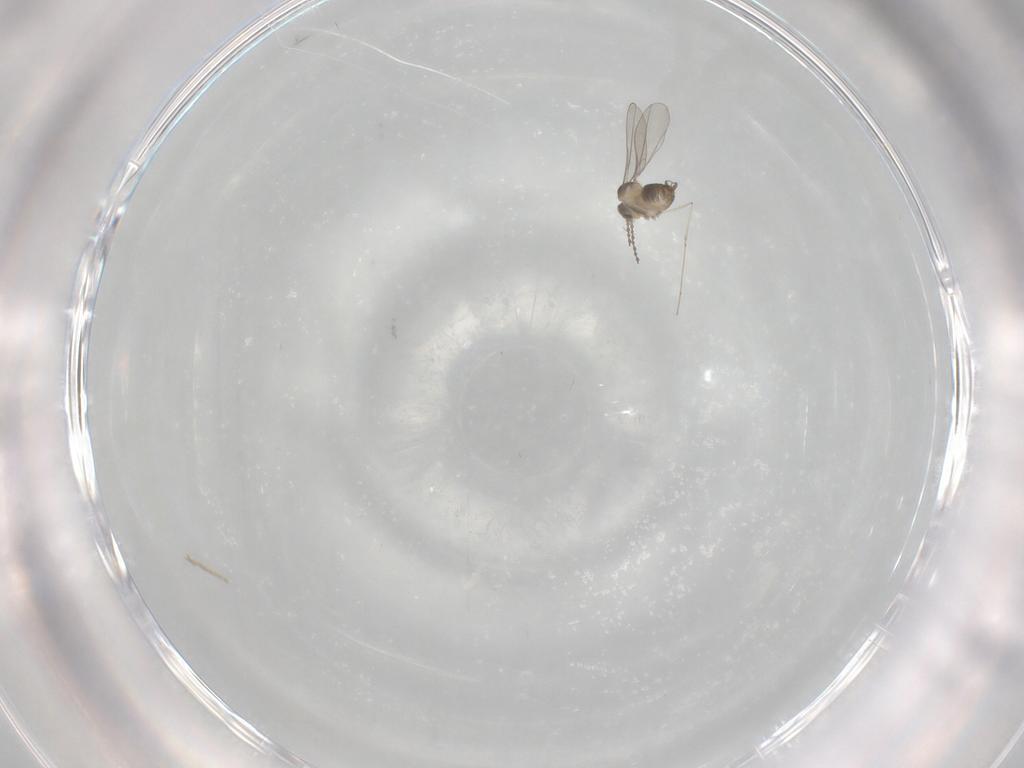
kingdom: Animalia
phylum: Arthropoda
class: Insecta
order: Diptera
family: Cecidomyiidae
